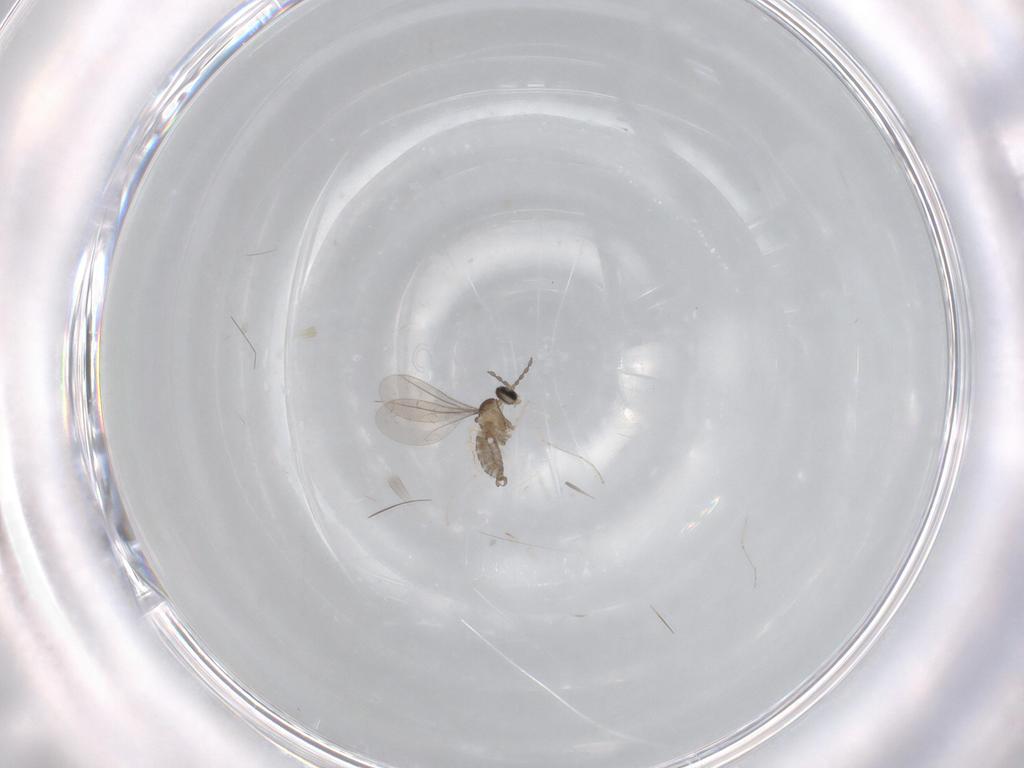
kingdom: Animalia
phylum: Arthropoda
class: Insecta
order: Diptera
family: Cecidomyiidae
